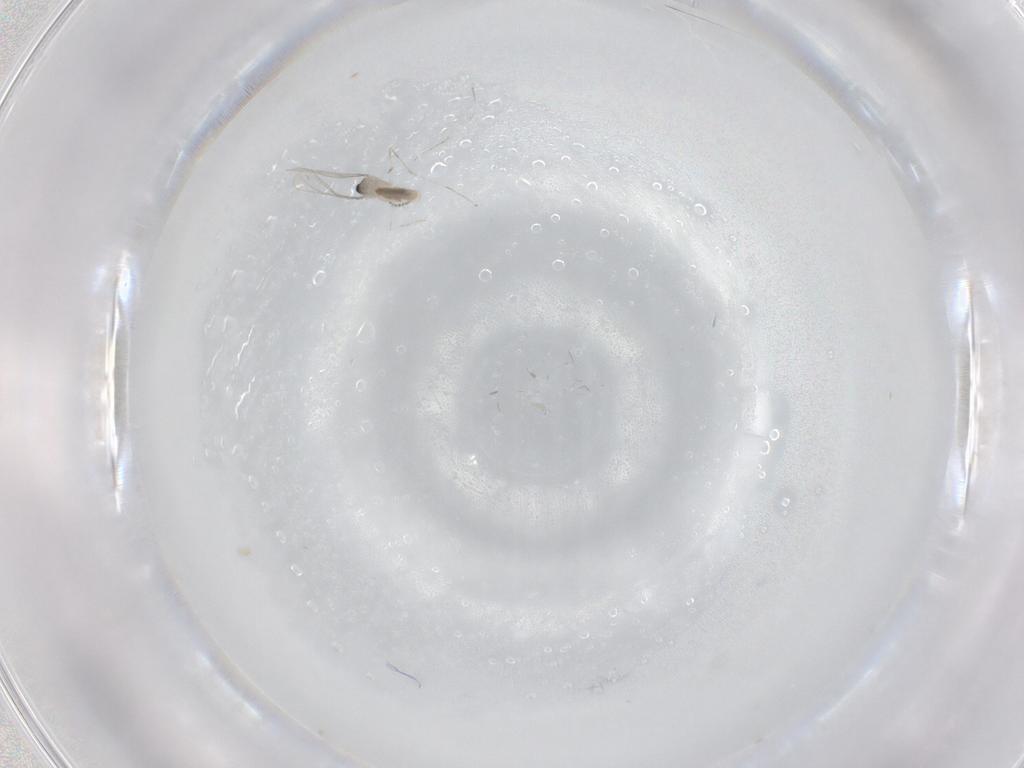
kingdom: Animalia
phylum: Arthropoda
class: Insecta
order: Diptera
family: Cecidomyiidae
